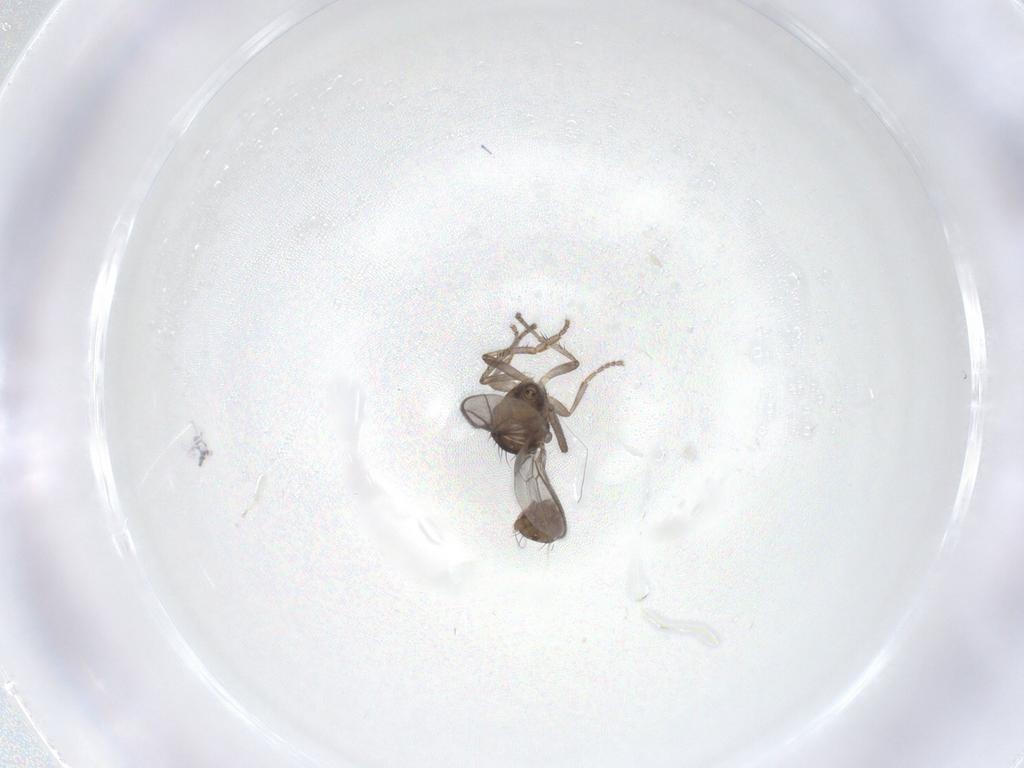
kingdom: Animalia
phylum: Arthropoda
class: Insecta
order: Diptera
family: Sphaeroceridae
